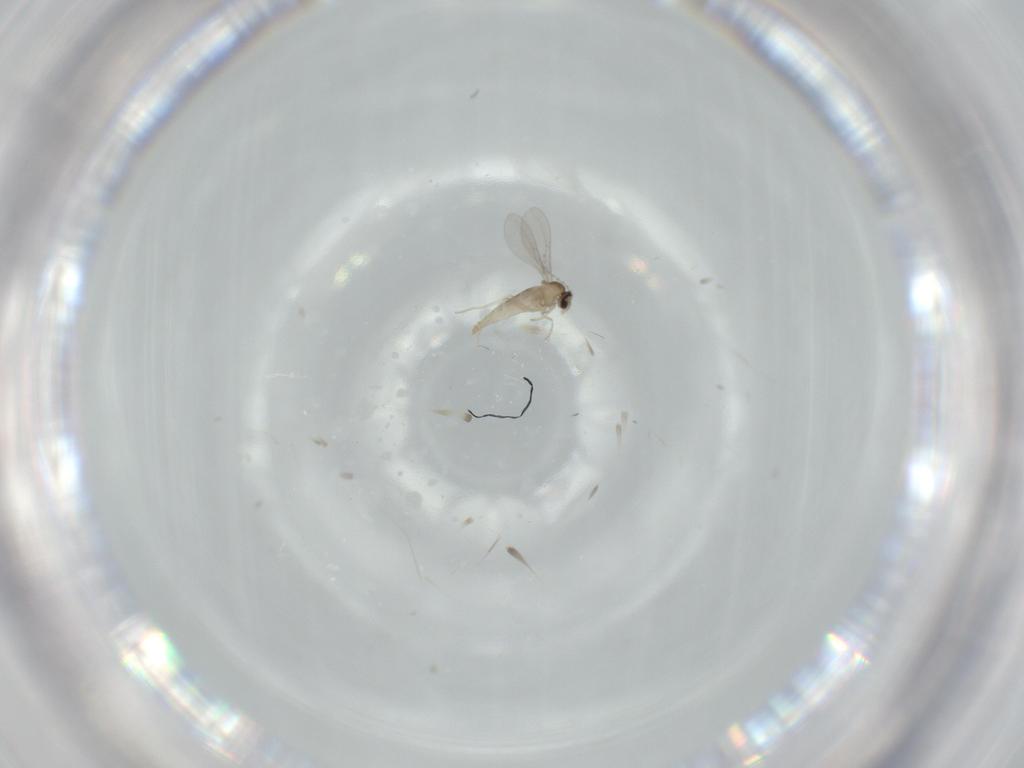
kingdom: Animalia
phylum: Arthropoda
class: Insecta
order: Diptera
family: Cecidomyiidae
